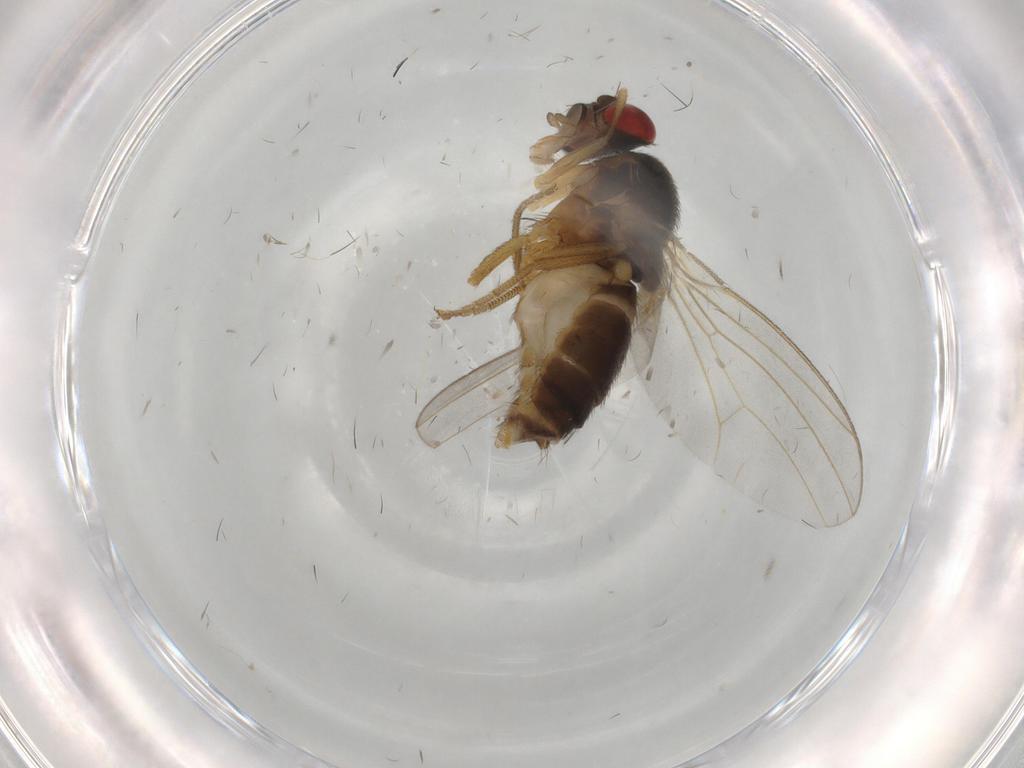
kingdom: Animalia
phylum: Arthropoda
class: Insecta
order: Diptera
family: Drosophilidae
